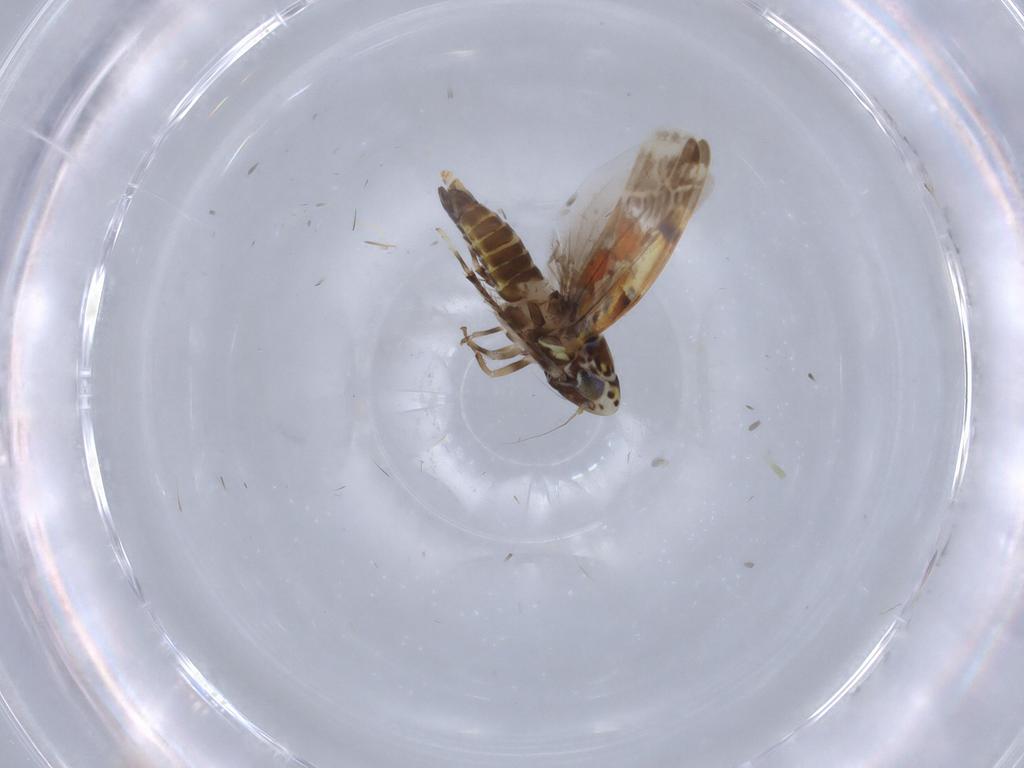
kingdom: Animalia
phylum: Arthropoda
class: Insecta
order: Hemiptera
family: Cicadellidae
